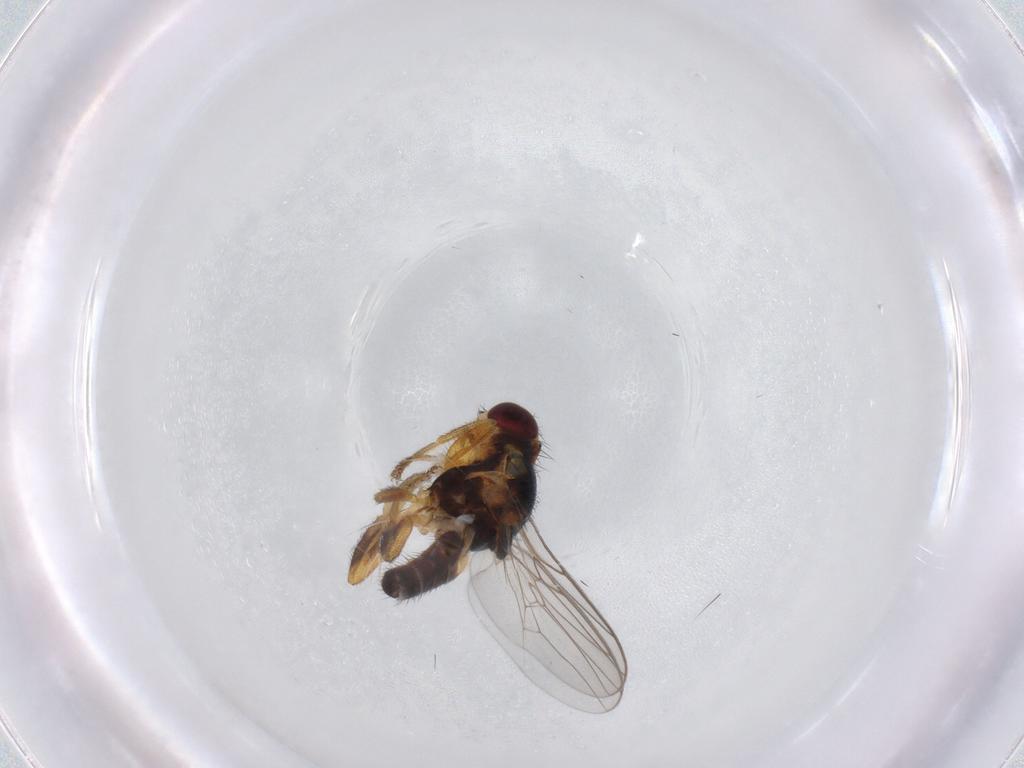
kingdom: Animalia
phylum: Arthropoda
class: Insecta
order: Diptera
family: Chloropidae
